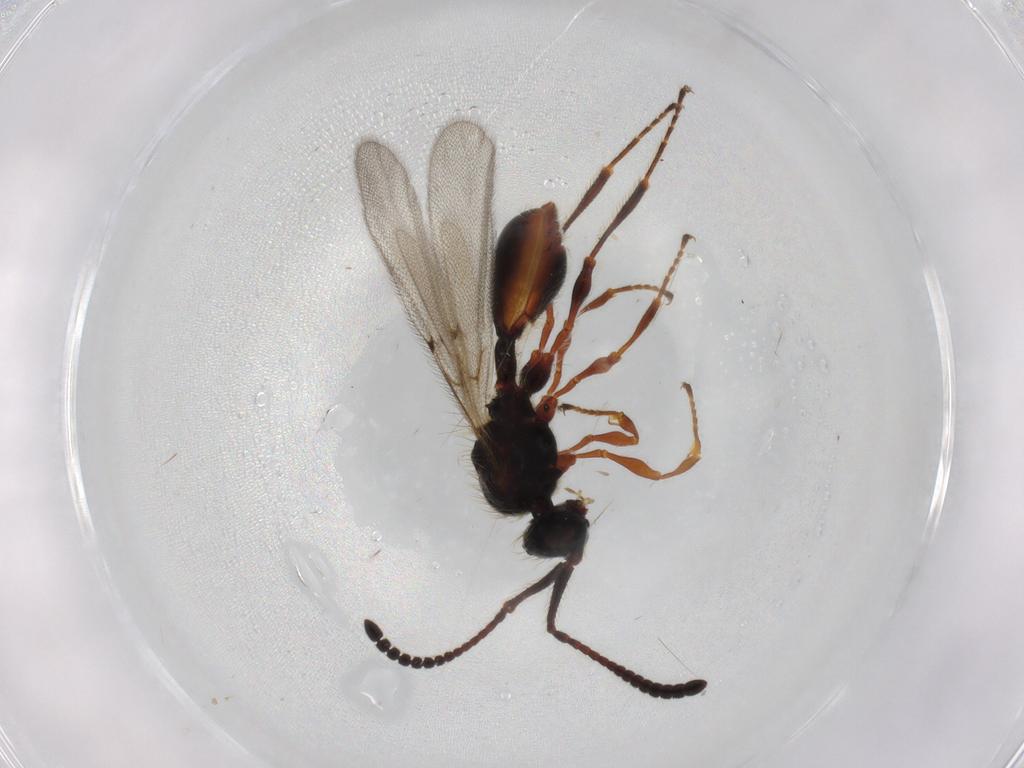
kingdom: Animalia
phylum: Arthropoda
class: Insecta
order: Hymenoptera
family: Diapriidae
